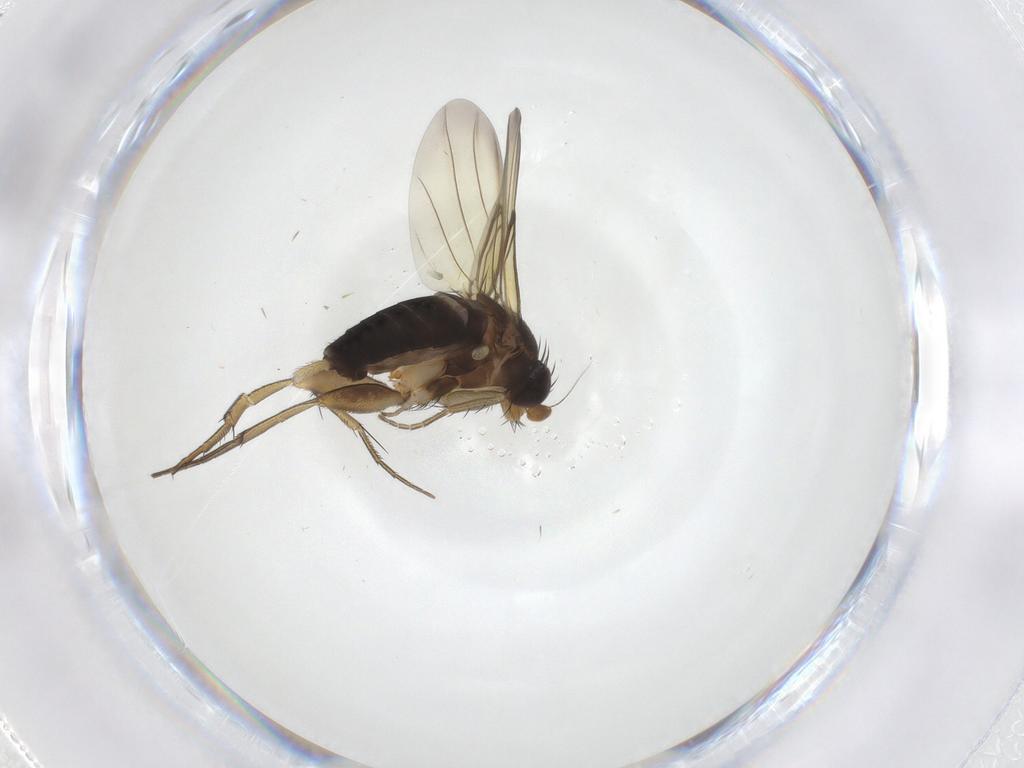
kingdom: Animalia
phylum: Arthropoda
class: Insecta
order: Diptera
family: Phoridae
